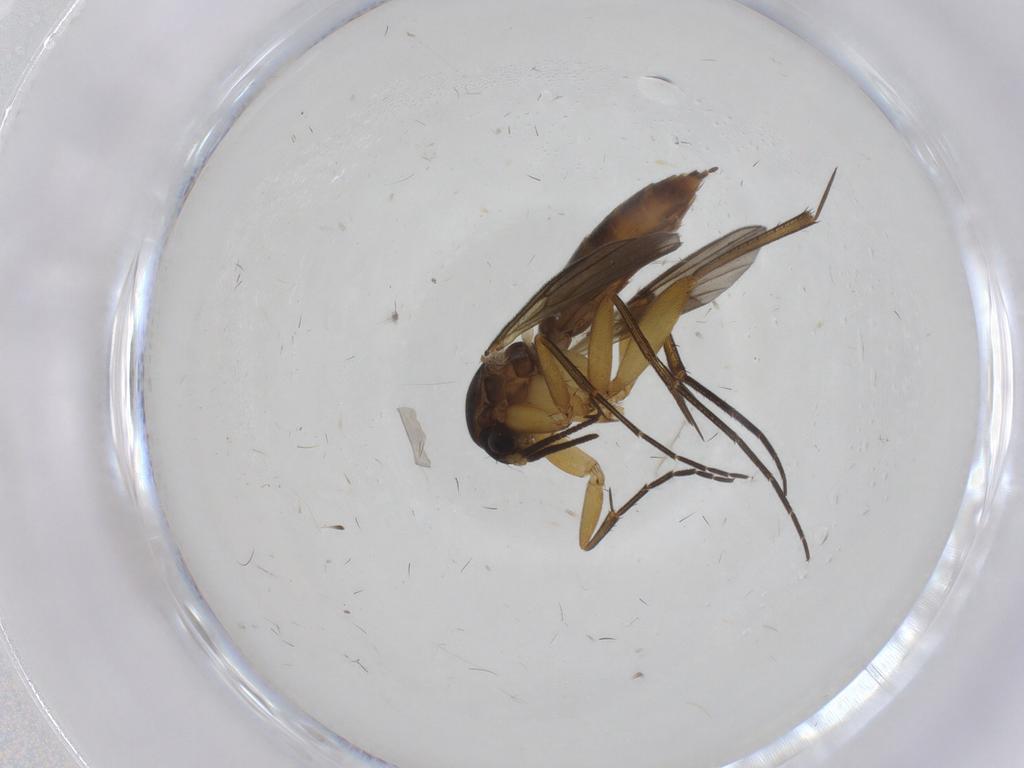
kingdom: Animalia
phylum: Arthropoda
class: Insecta
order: Diptera
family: Mycetophilidae
